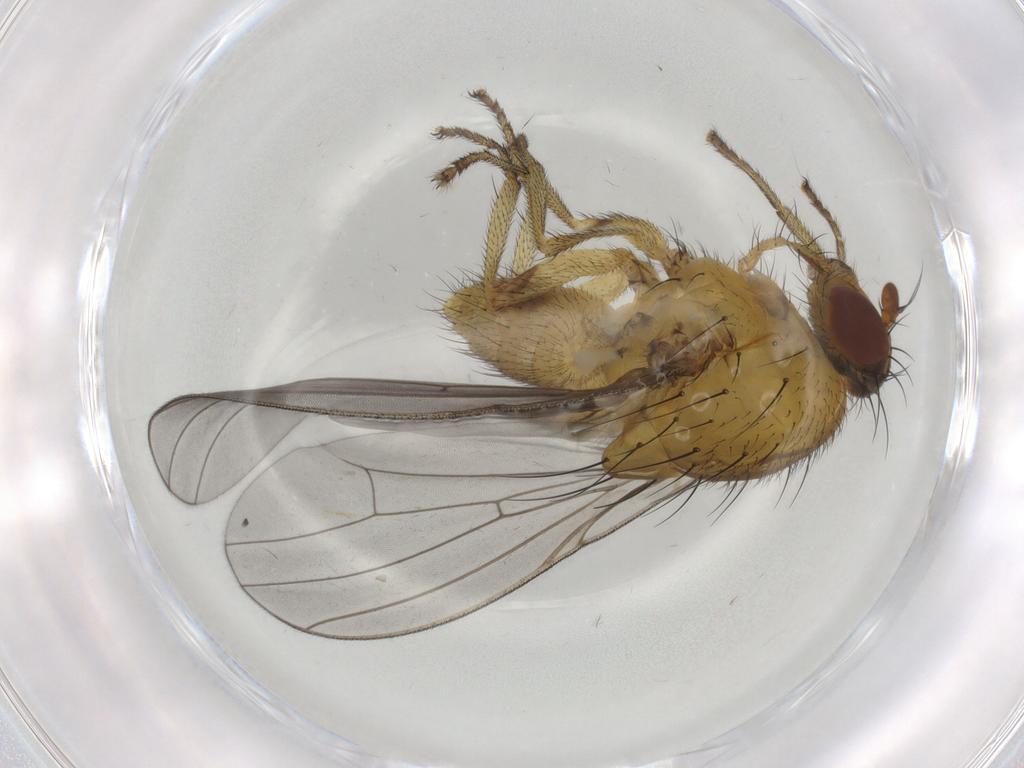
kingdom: Animalia
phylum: Arthropoda
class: Insecta
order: Diptera
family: Lauxaniidae
